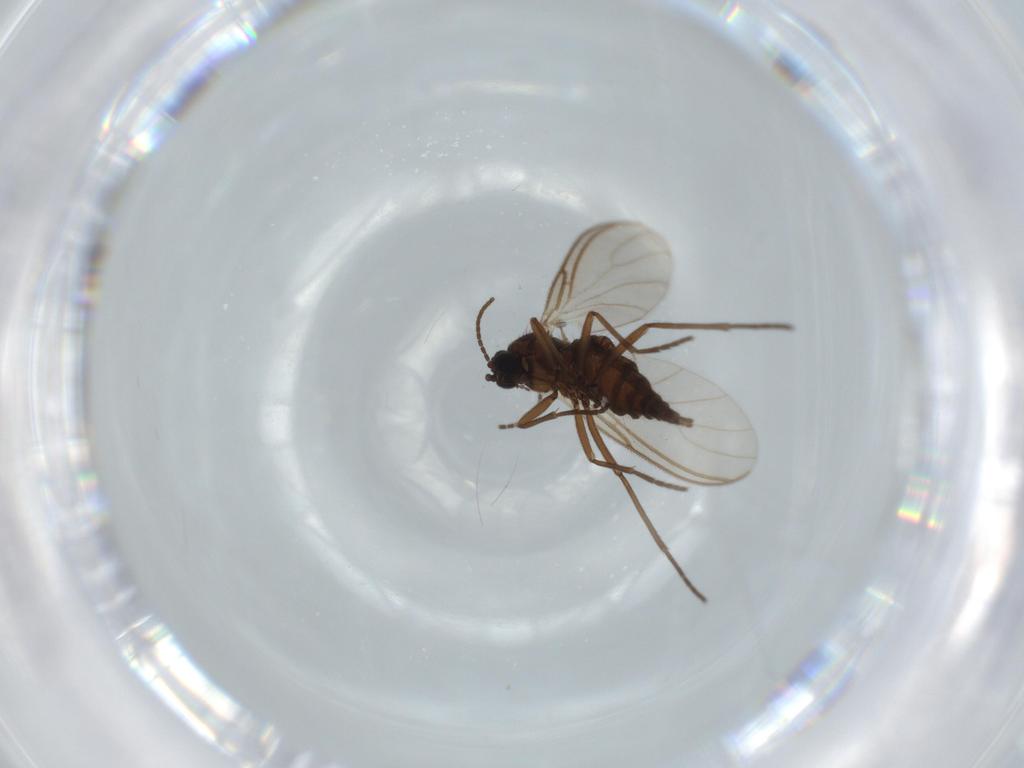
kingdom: Animalia
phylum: Arthropoda
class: Insecta
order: Diptera
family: Sciaridae
